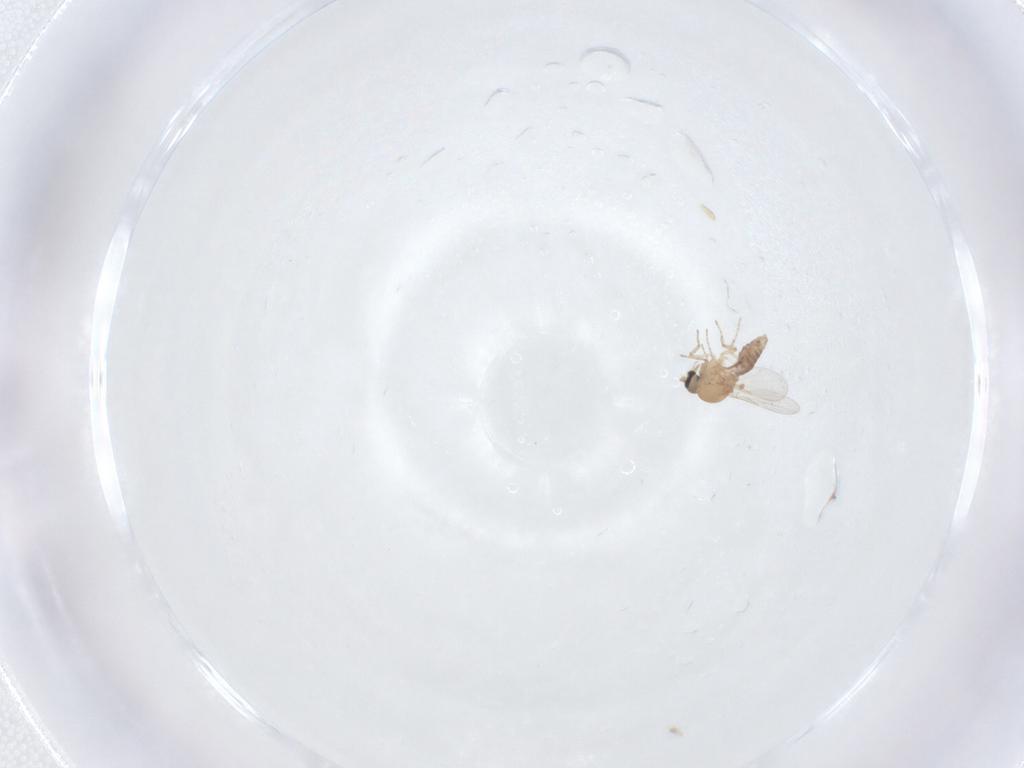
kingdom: Animalia
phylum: Arthropoda
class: Insecta
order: Diptera
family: Ceratopogonidae
